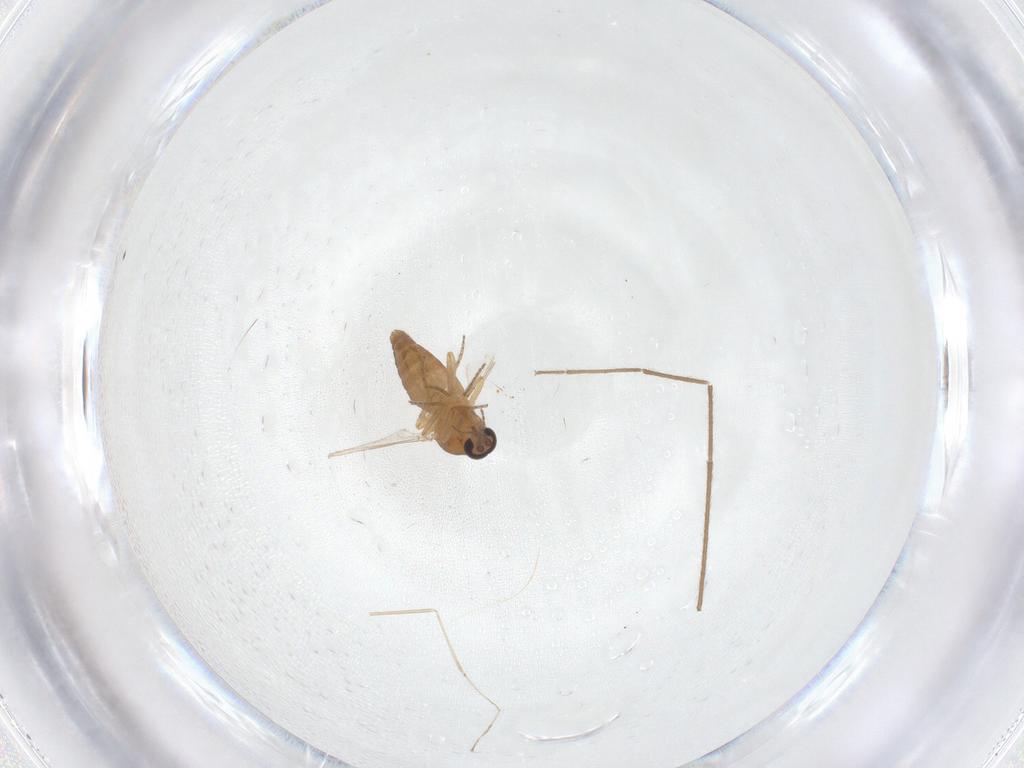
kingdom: Animalia
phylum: Arthropoda
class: Insecta
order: Diptera
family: Ceratopogonidae
